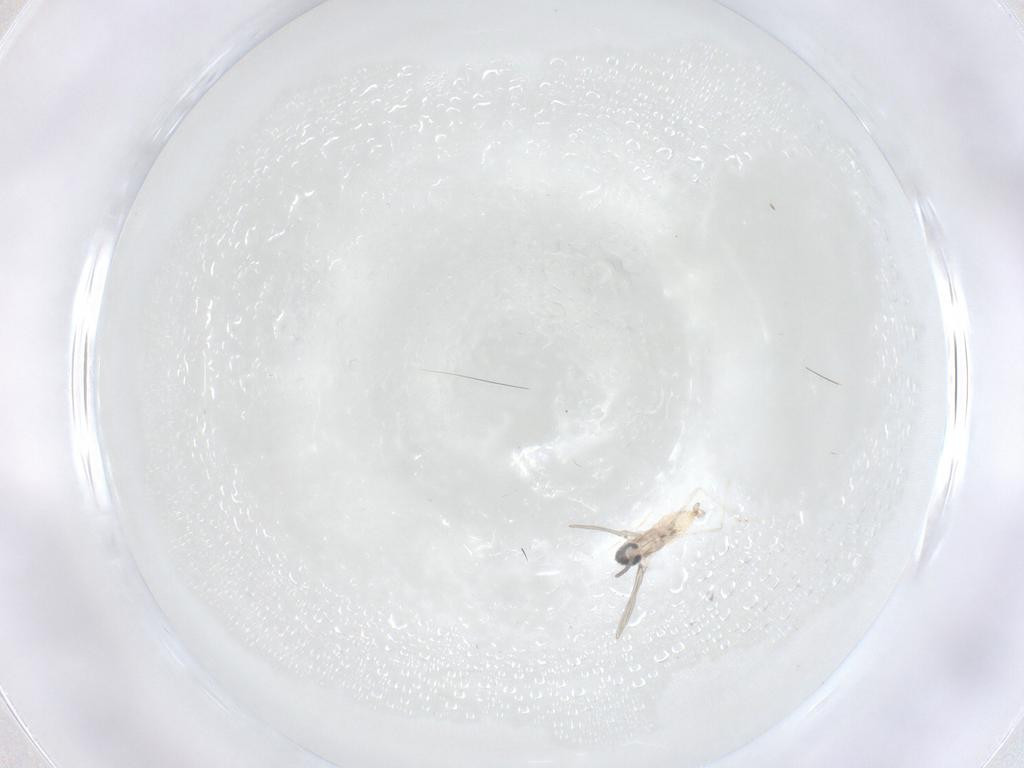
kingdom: Animalia
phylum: Arthropoda
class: Insecta
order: Diptera
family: Cecidomyiidae
